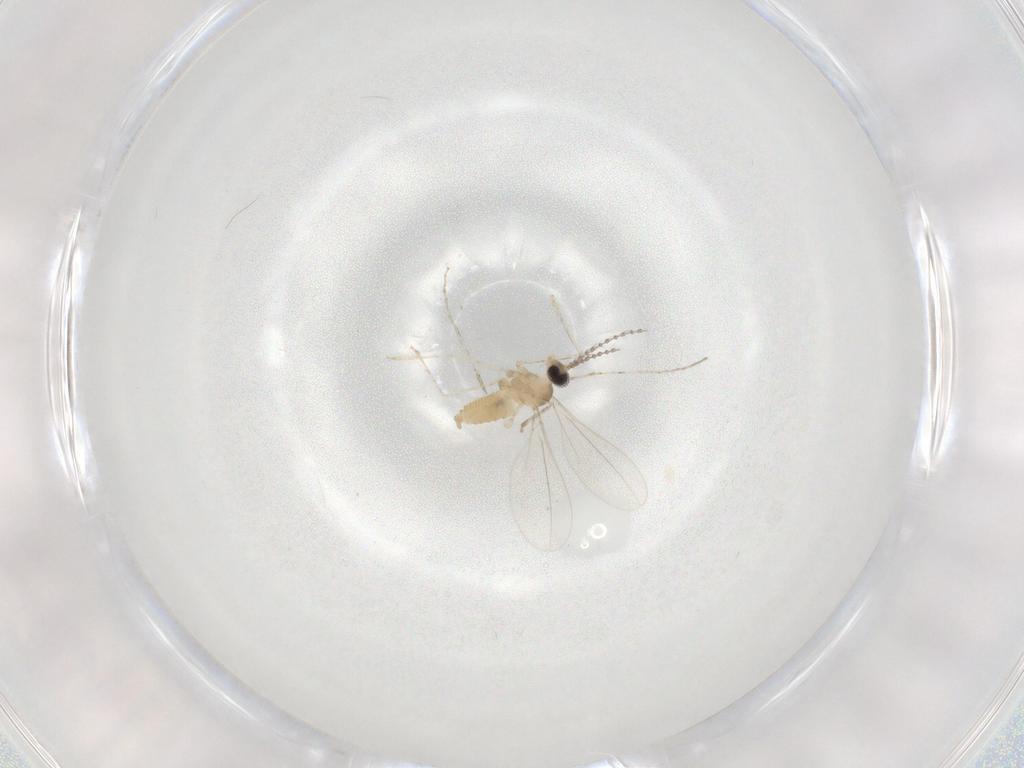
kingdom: Animalia
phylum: Arthropoda
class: Insecta
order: Diptera
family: Cecidomyiidae
